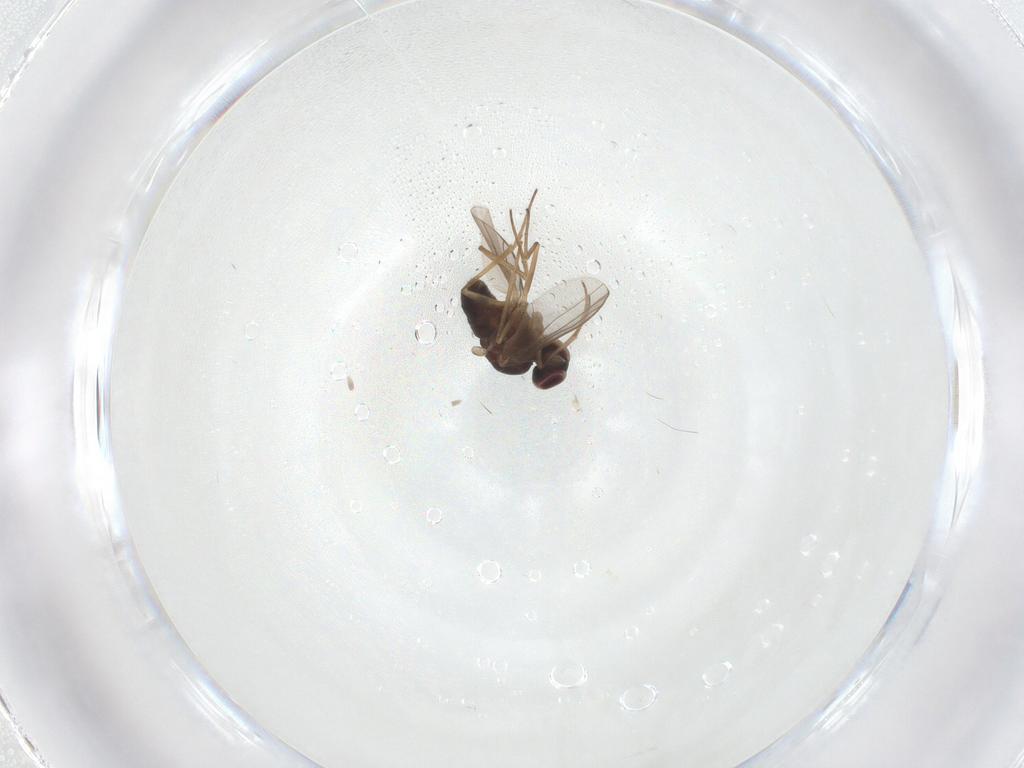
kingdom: Animalia
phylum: Arthropoda
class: Insecta
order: Diptera
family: Dolichopodidae
